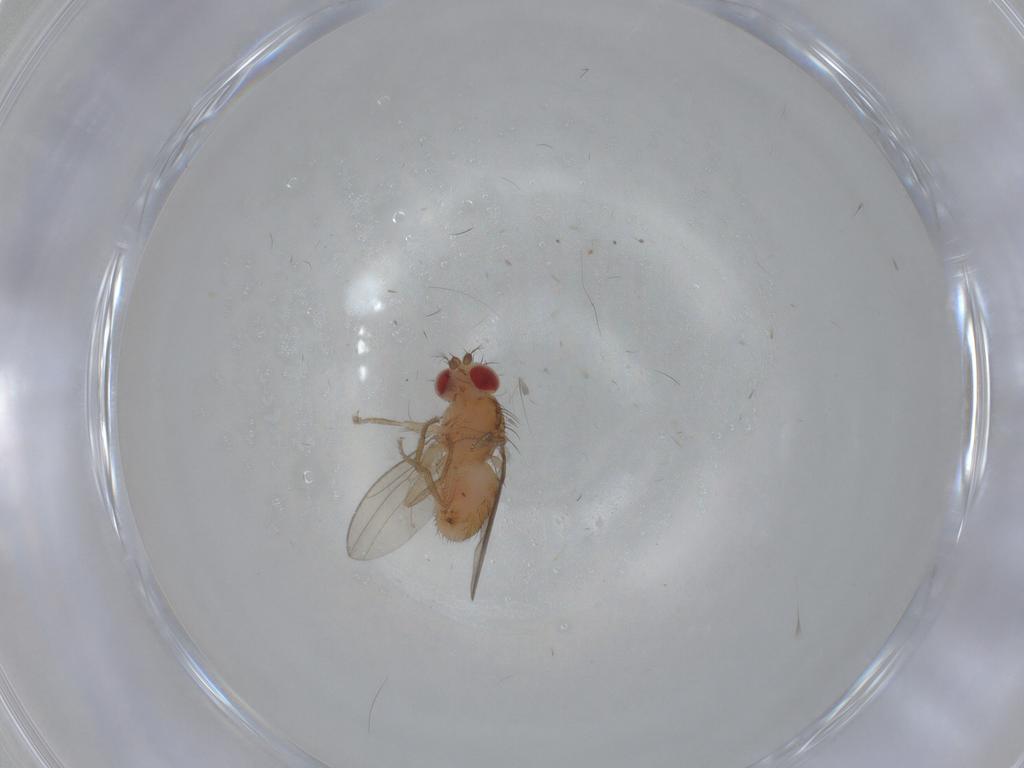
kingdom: Animalia
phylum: Arthropoda
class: Insecta
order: Diptera
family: Drosophilidae
